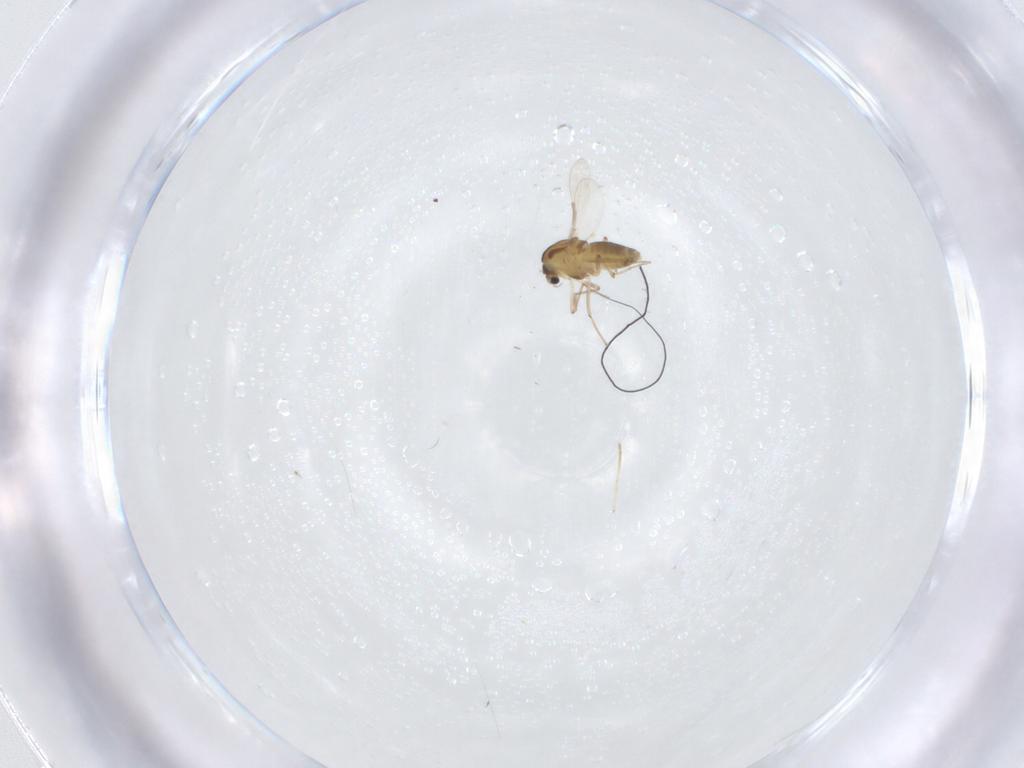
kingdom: Animalia
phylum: Arthropoda
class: Insecta
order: Diptera
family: Chironomidae
